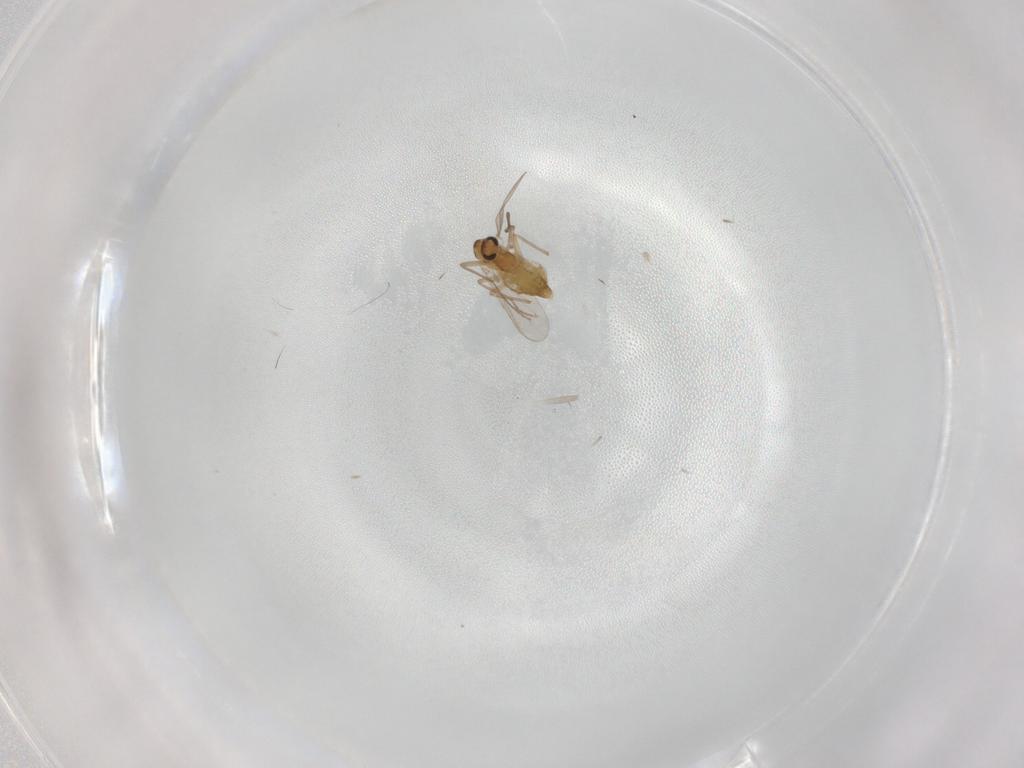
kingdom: Animalia
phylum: Arthropoda
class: Insecta
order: Diptera
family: Chironomidae
